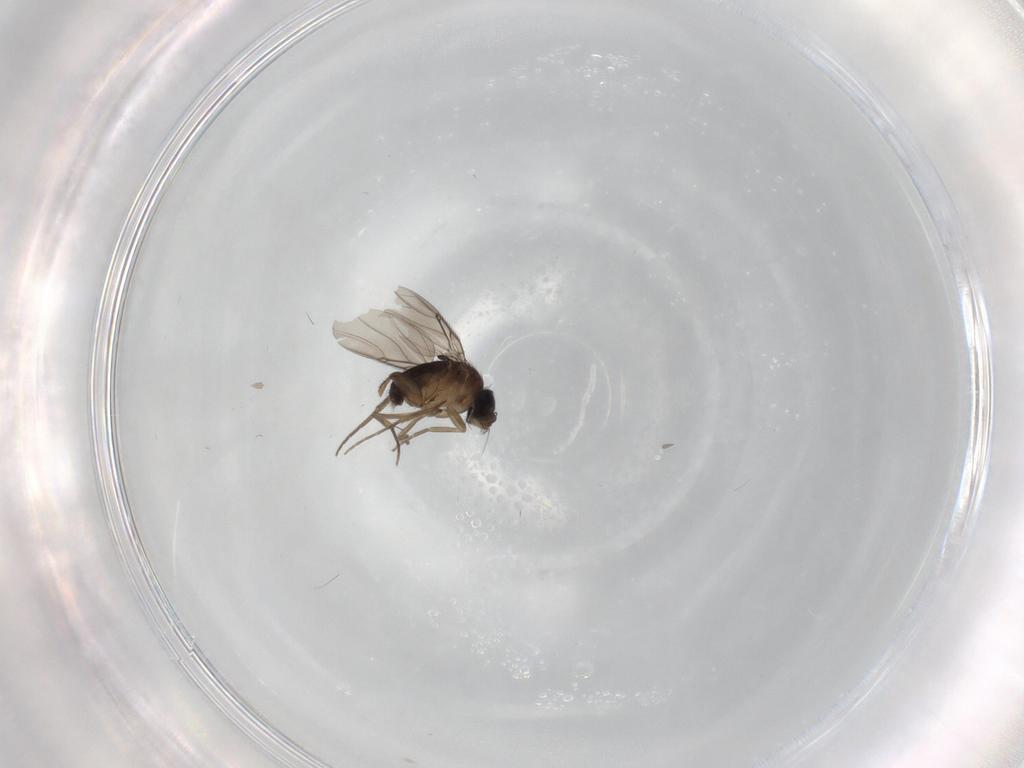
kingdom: Animalia
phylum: Arthropoda
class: Insecta
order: Diptera
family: Phoridae
